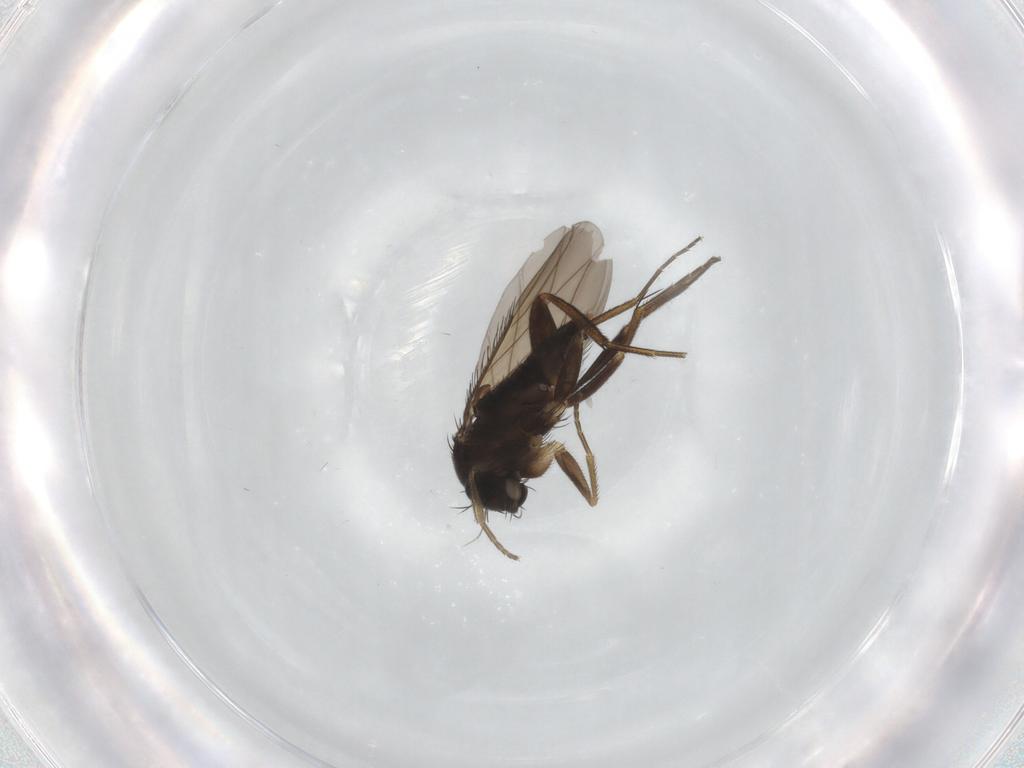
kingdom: Animalia
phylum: Arthropoda
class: Insecta
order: Diptera
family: Phoridae
